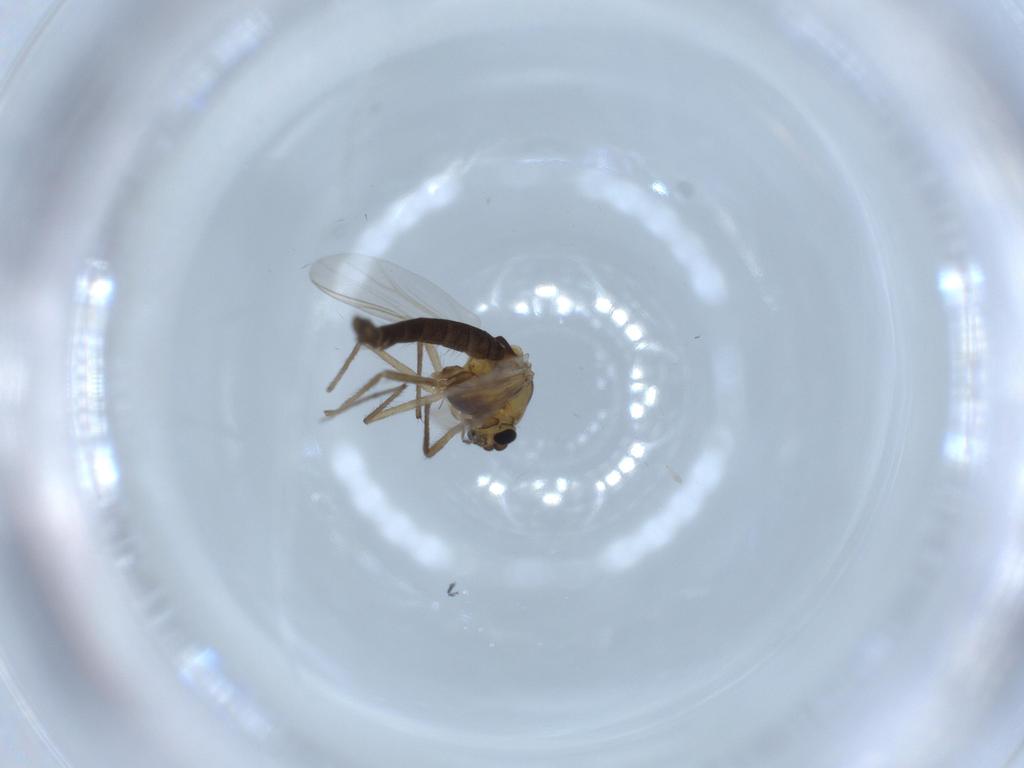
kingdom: Animalia
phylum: Arthropoda
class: Insecta
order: Diptera
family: Chironomidae
